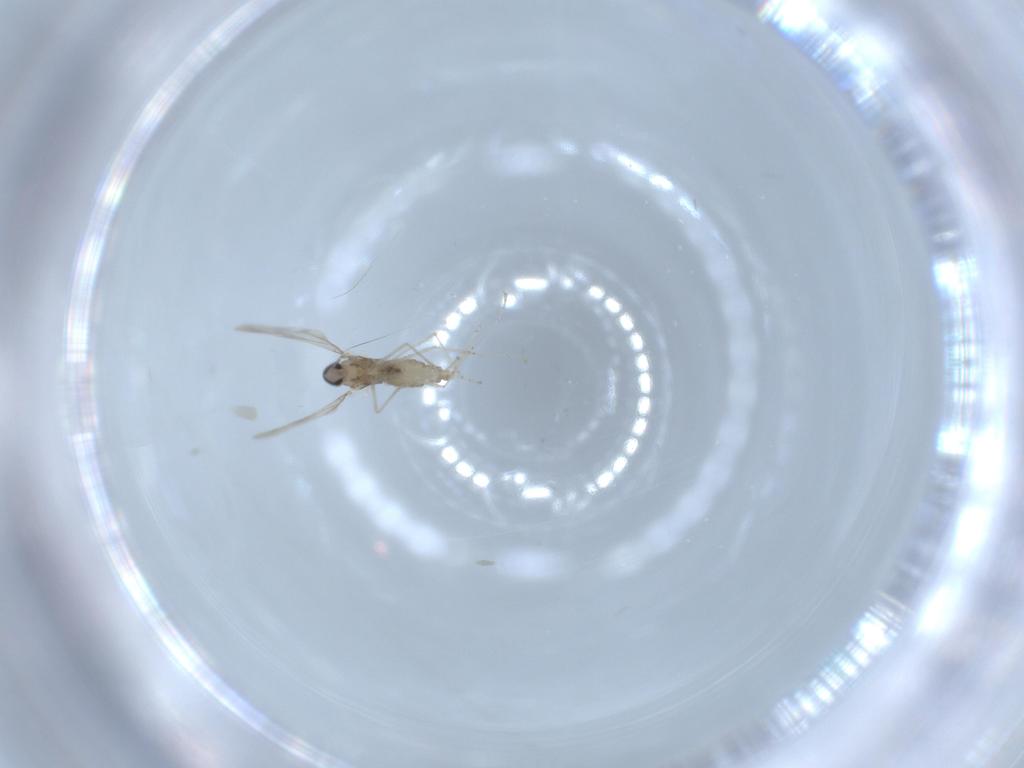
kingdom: Animalia
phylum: Arthropoda
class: Insecta
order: Diptera
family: Sciaridae
